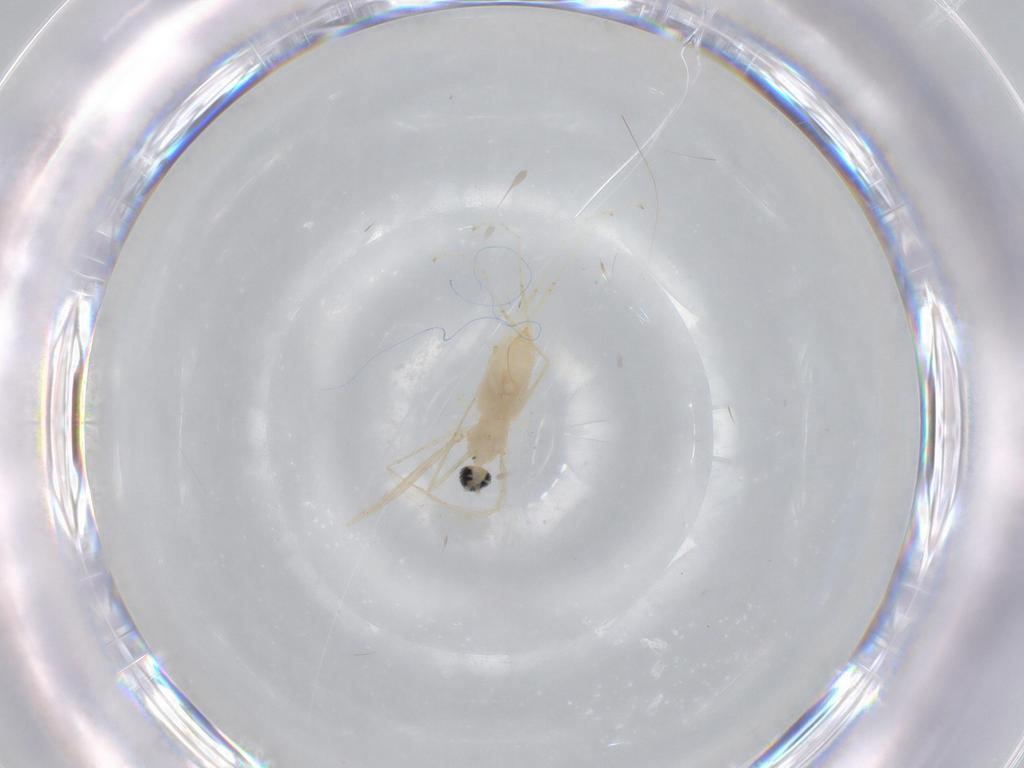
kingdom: Animalia
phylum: Arthropoda
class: Insecta
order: Diptera
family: Cecidomyiidae
